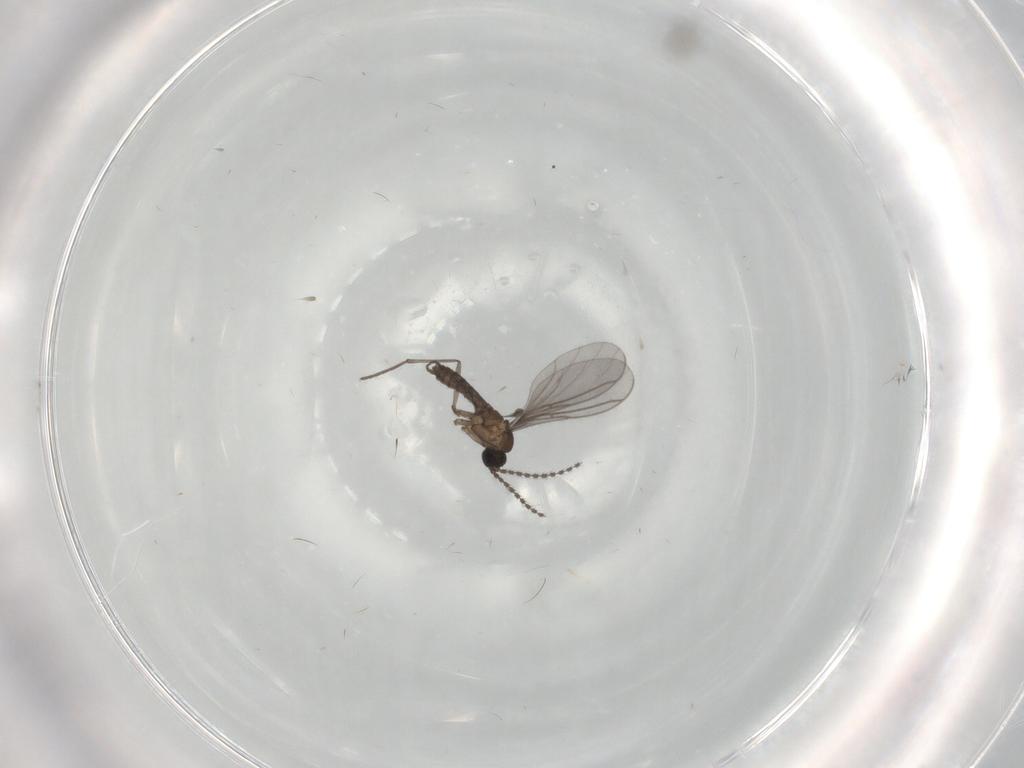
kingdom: Animalia
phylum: Arthropoda
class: Insecta
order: Diptera
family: Sciaridae
